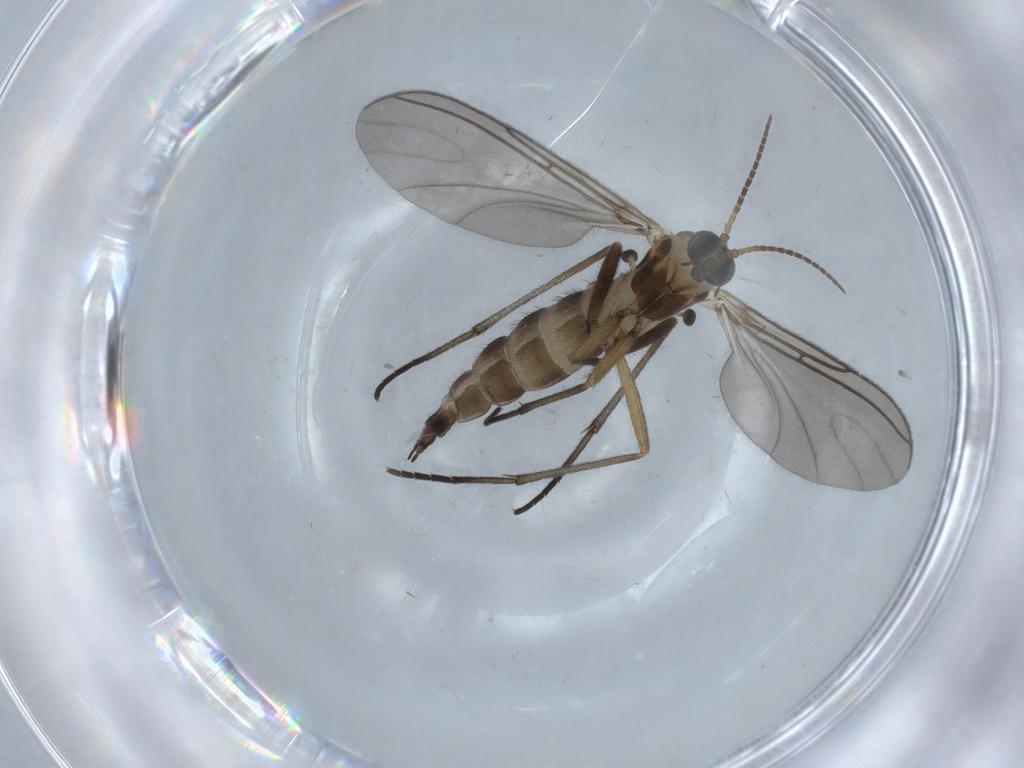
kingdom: Animalia
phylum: Arthropoda
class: Insecta
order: Diptera
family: Sciaridae
